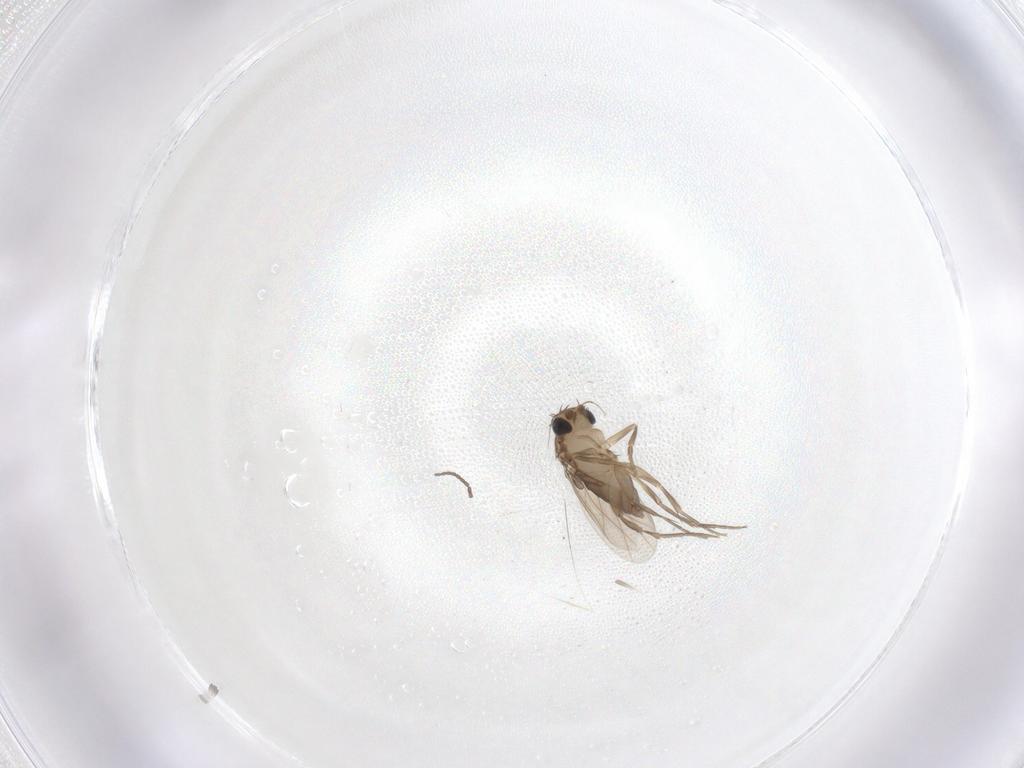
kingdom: Animalia
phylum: Arthropoda
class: Insecta
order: Diptera
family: Phoridae
